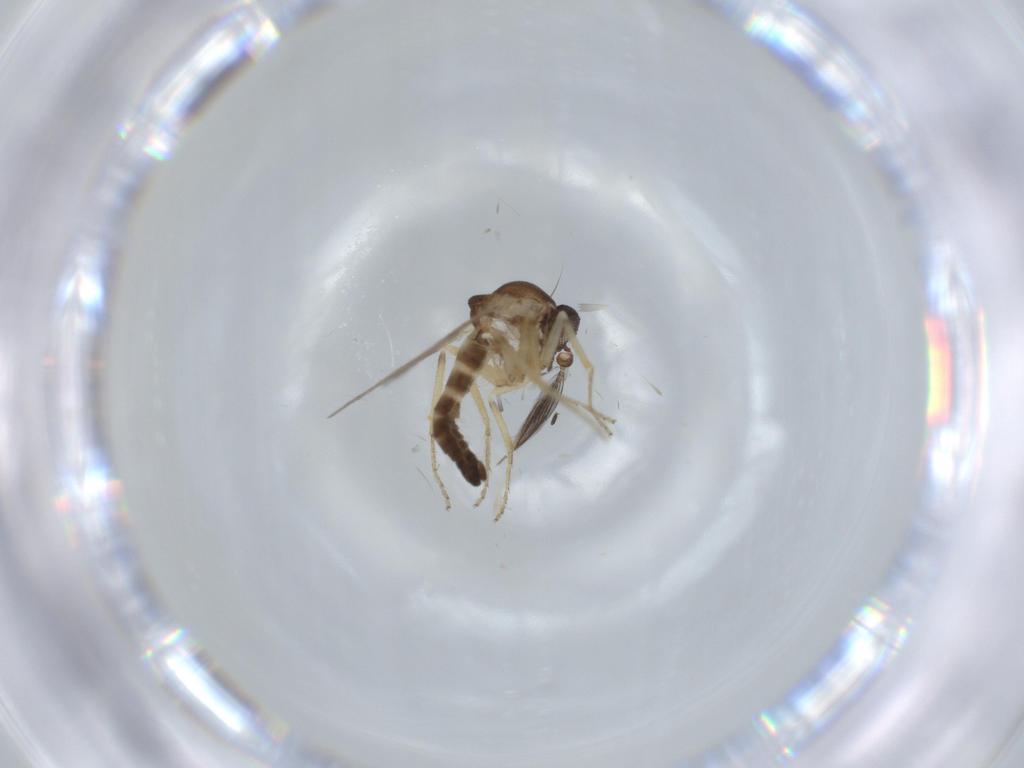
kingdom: Animalia
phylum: Arthropoda
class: Insecta
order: Diptera
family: Ceratopogonidae
